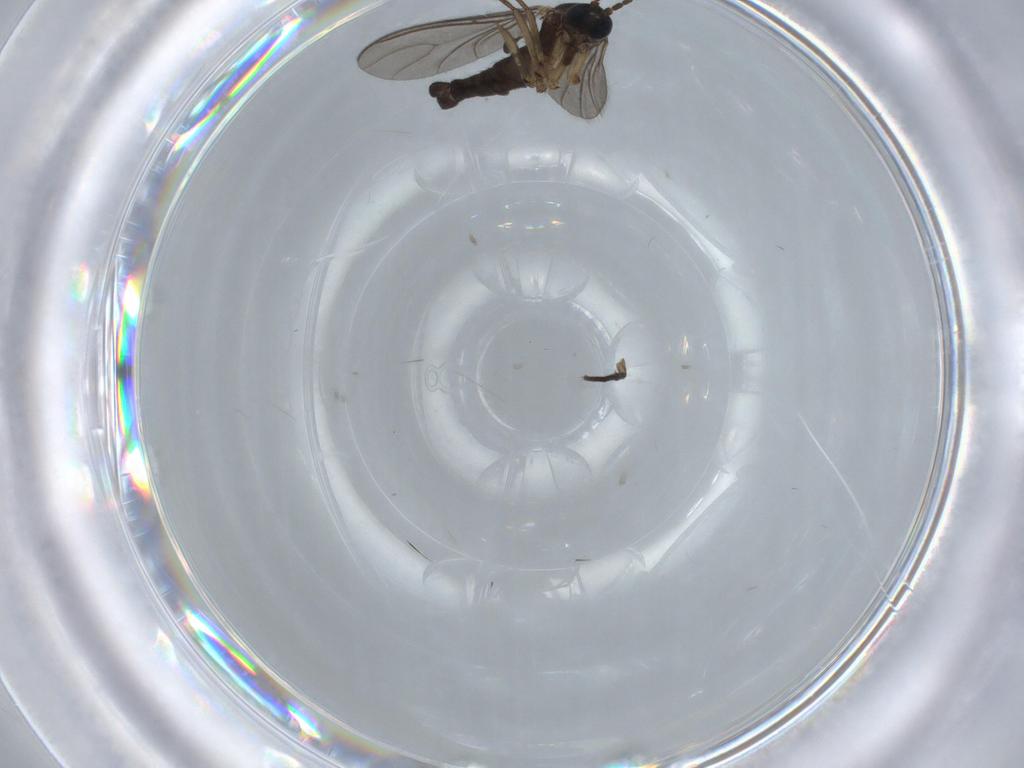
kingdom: Animalia
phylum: Arthropoda
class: Insecta
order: Diptera
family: Sciaridae
